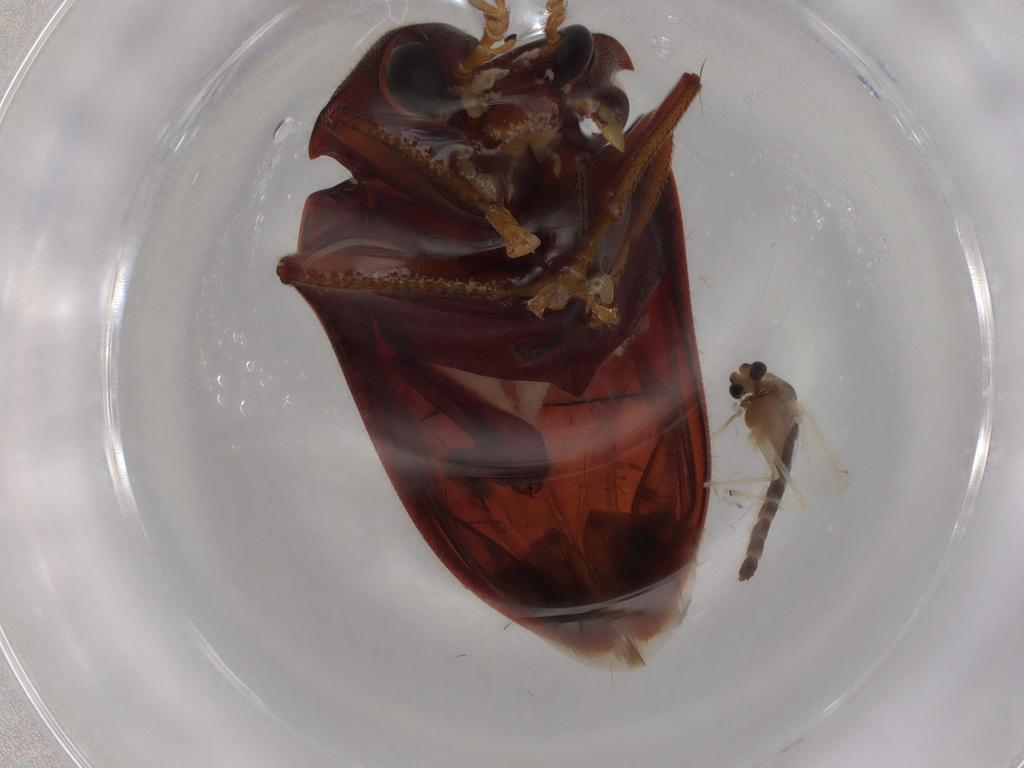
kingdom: Animalia
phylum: Arthropoda
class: Insecta
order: Coleoptera
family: Ptilodactylidae
